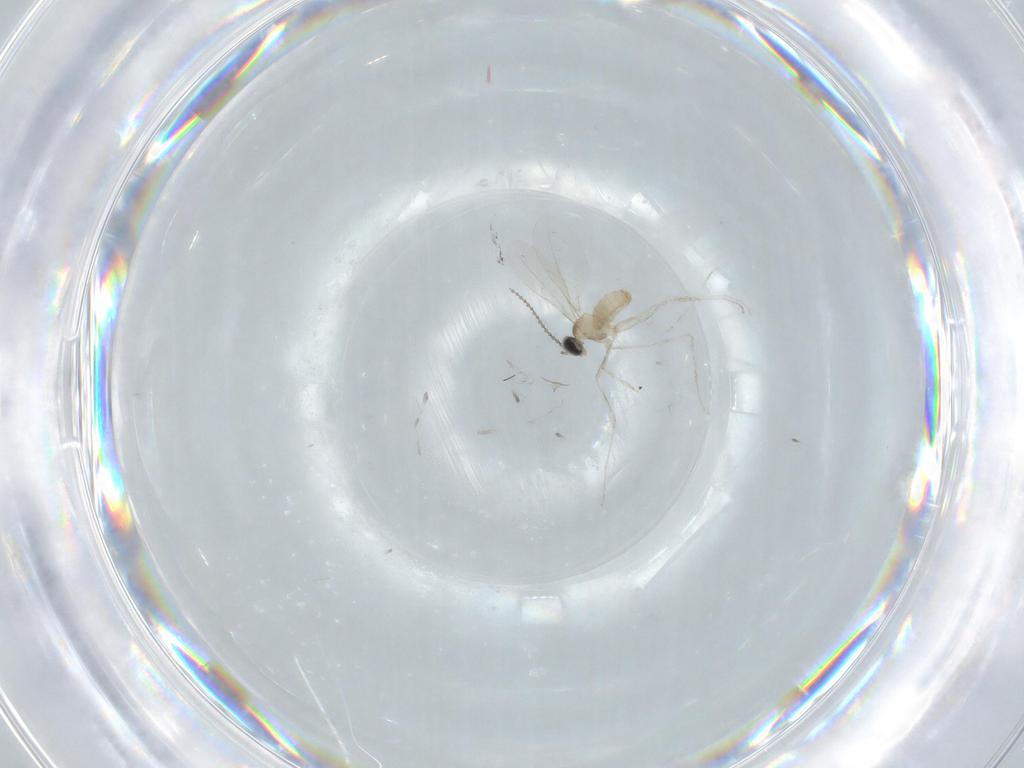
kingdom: Animalia
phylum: Arthropoda
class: Insecta
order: Diptera
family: Cecidomyiidae
